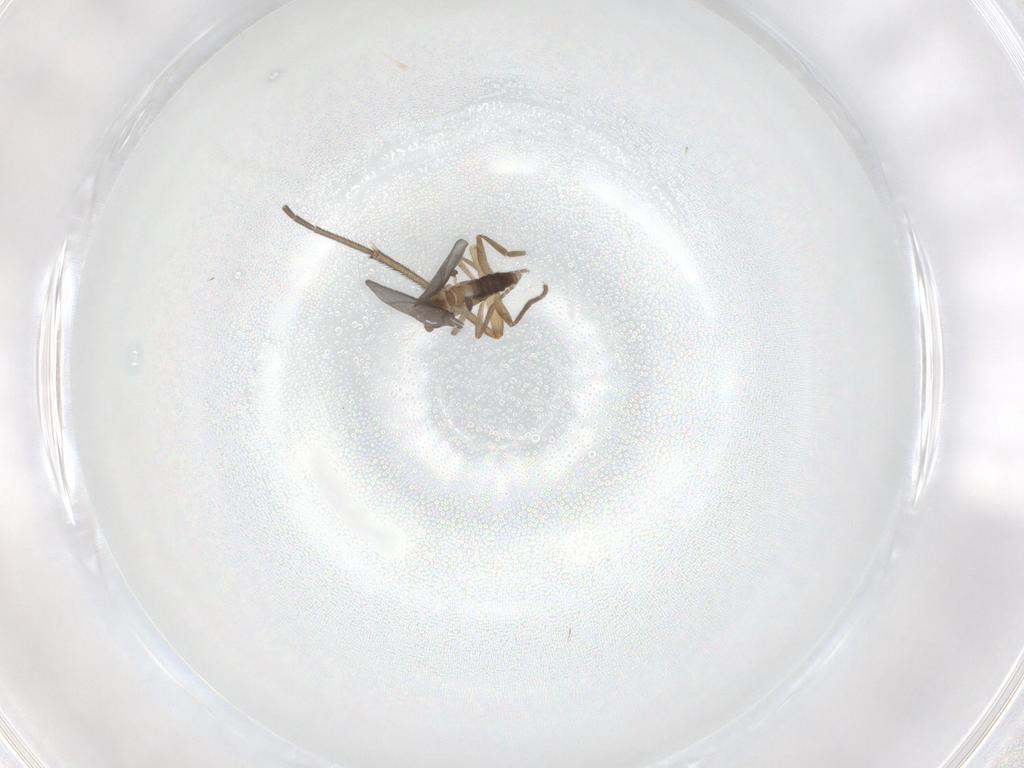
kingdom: Animalia
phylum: Arthropoda
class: Insecta
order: Diptera
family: Phoridae
